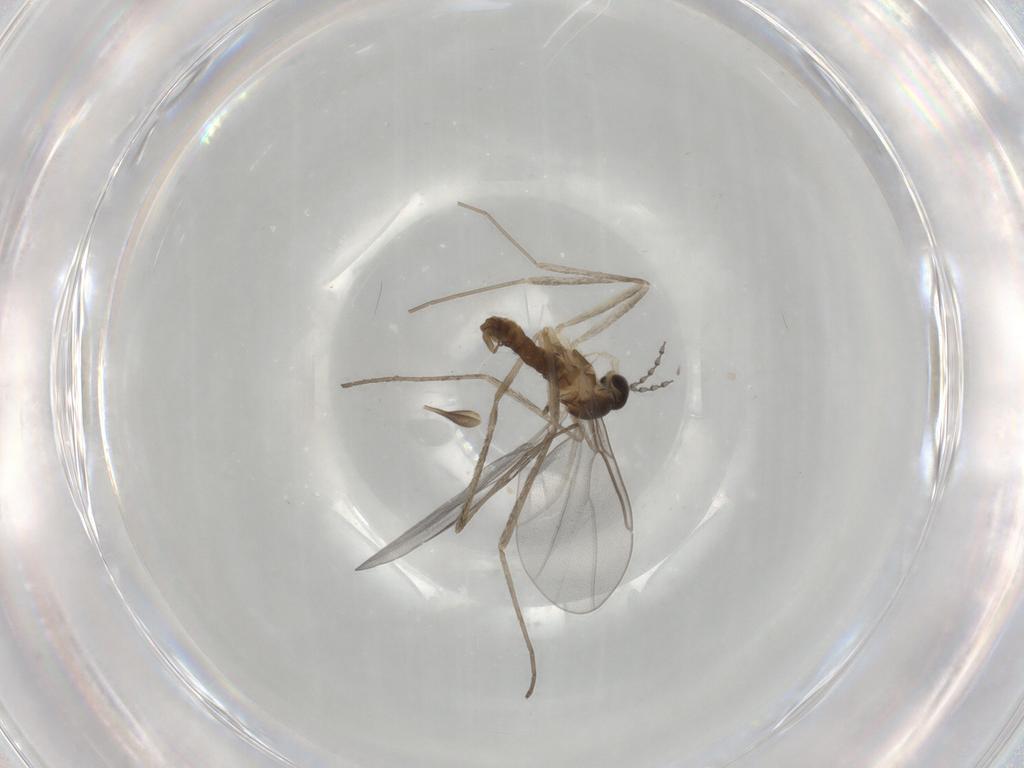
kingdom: Animalia
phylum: Arthropoda
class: Insecta
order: Diptera
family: Cecidomyiidae
